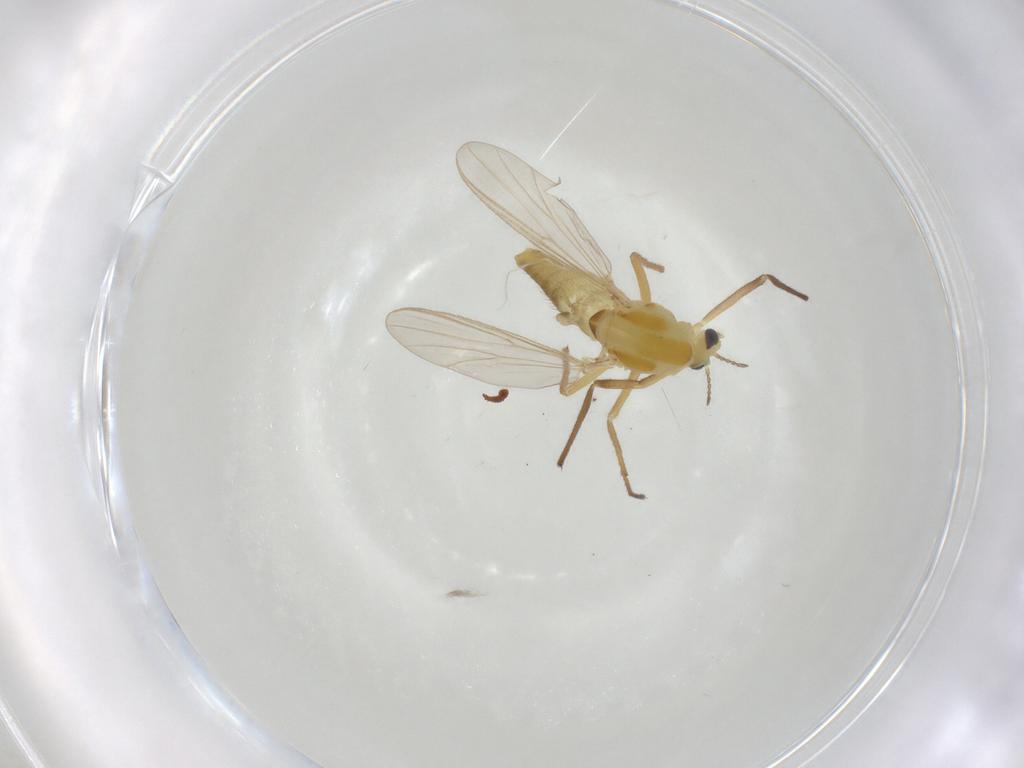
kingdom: Animalia
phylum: Arthropoda
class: Insecta
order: Diptera
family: Chironomidae
